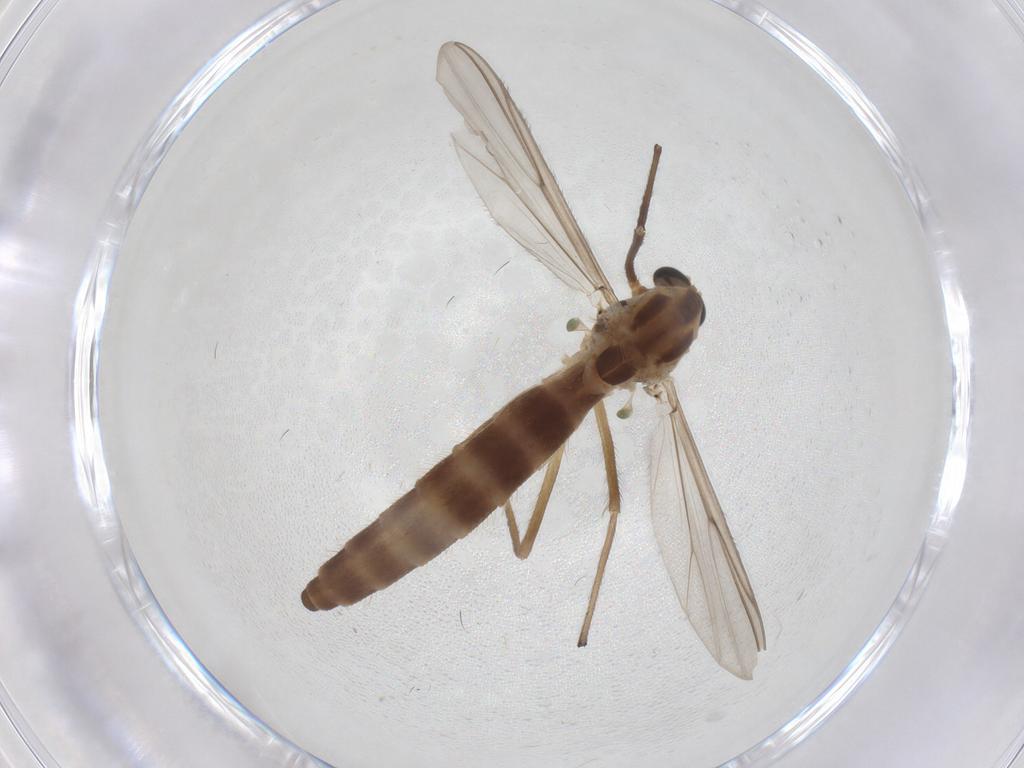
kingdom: Animalia
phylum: Arthropoda
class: Insecta
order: Diptera
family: Chironomidae
